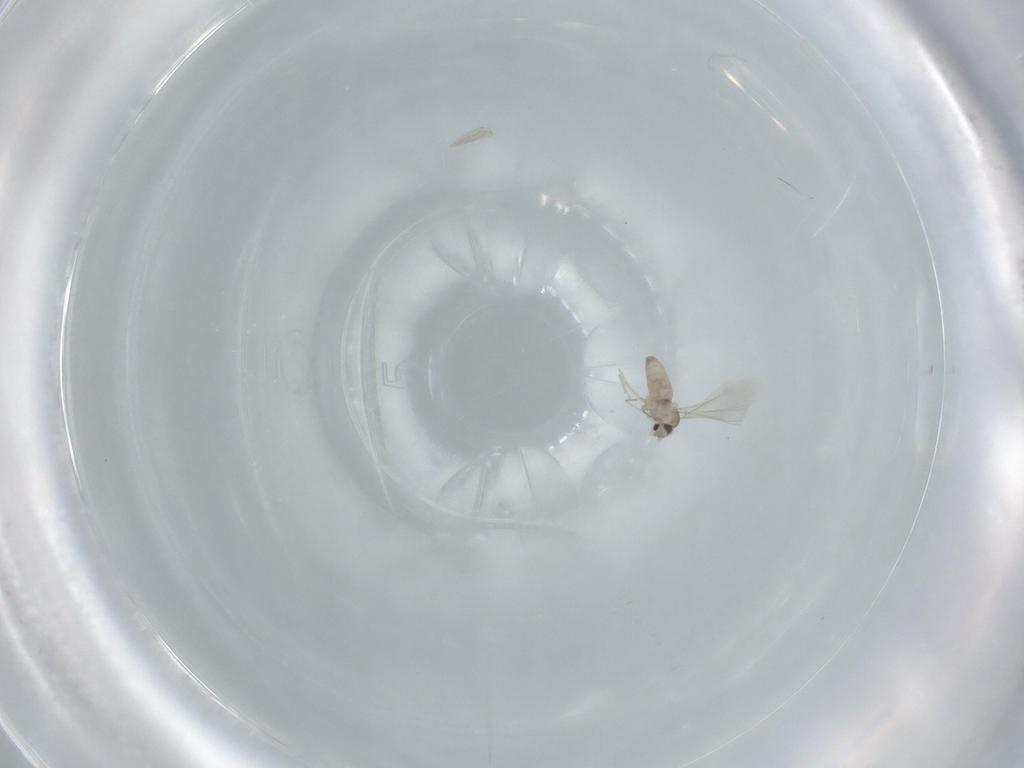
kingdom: Animalia
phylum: Arthropoda
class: Insecta
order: Diptera
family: Cecidomyiidae
